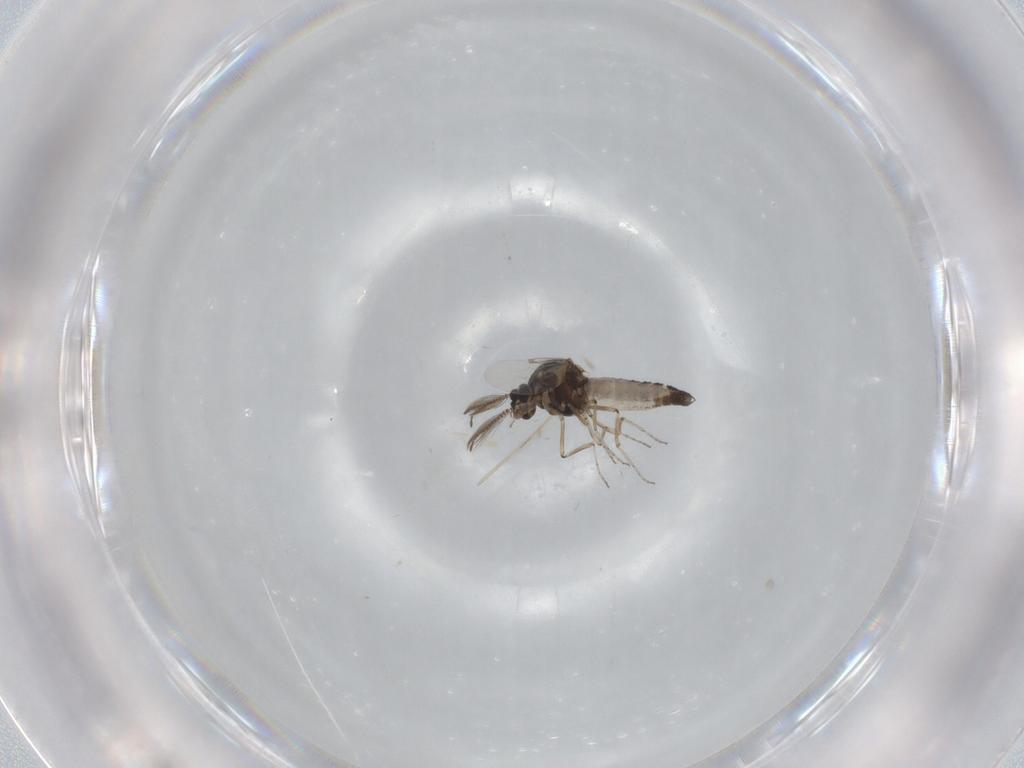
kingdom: Animalia
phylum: Arthropoda
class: Insecta
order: Diptera
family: Ceratopogonidae
